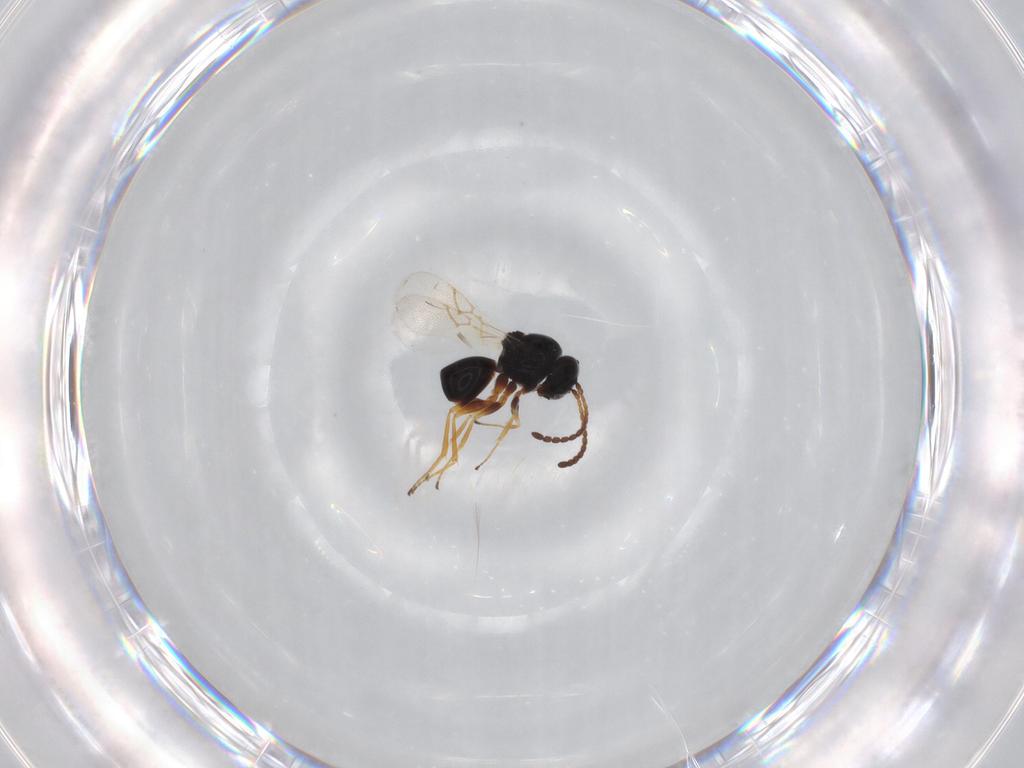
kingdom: Animalia
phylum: Arthropoda
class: Insecta
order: Hymenoptera
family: Figitidae
